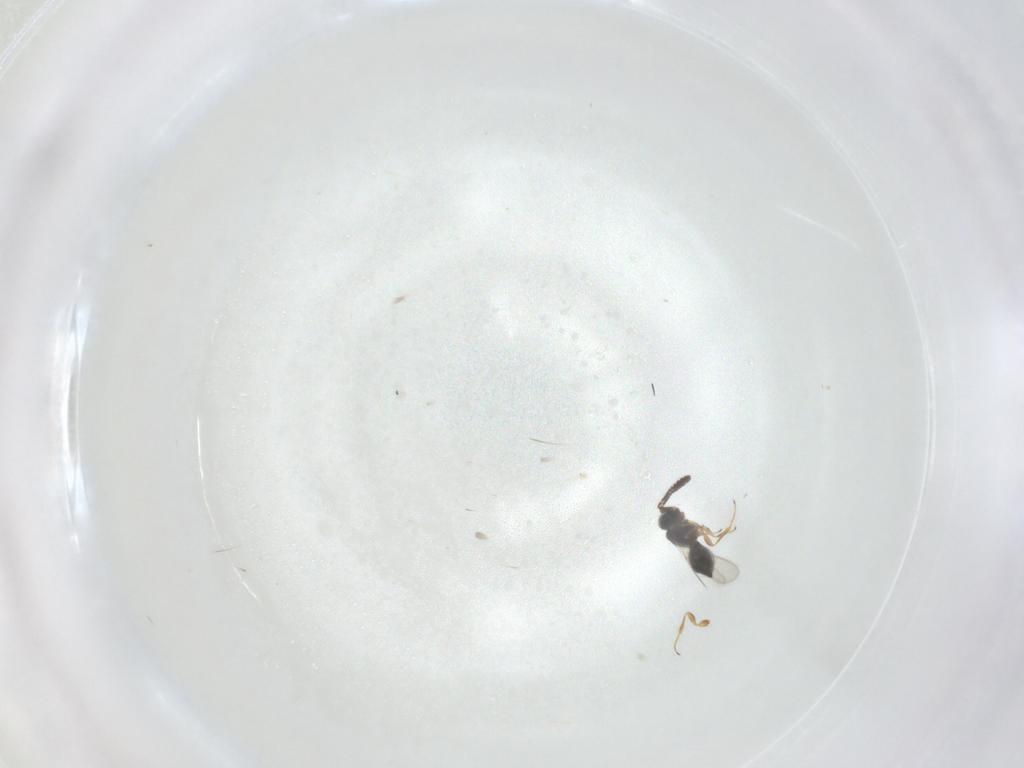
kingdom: Animalia
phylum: Arthropoda
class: Insecta
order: Hymenoptera
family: Scelionidae
